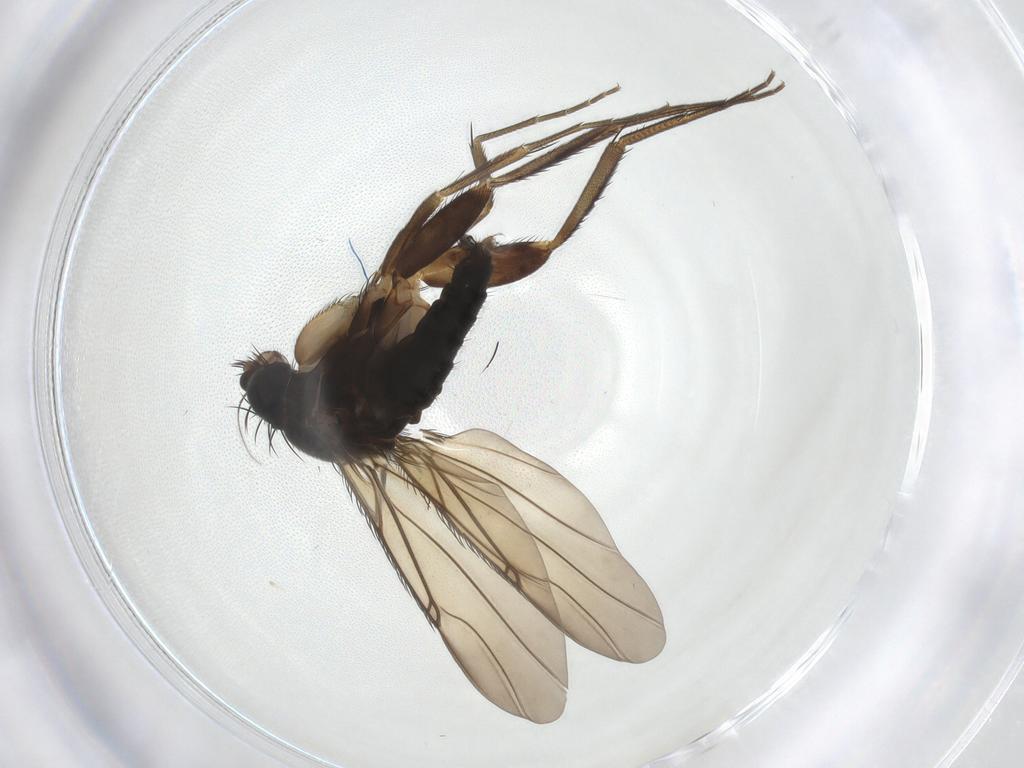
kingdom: Animalia
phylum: Arthropoda
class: Insecta
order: Diptera
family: Phoridae
